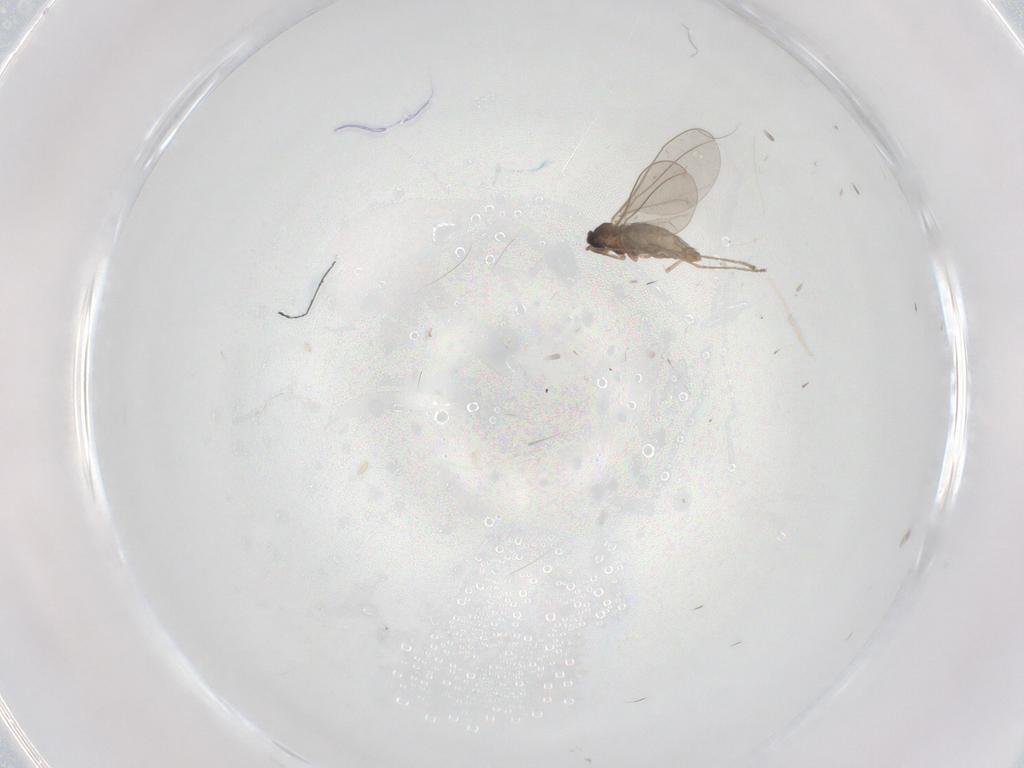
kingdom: Animalia
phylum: Arthropoda
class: Insecta
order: Diptera
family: Cecidomyiidae
